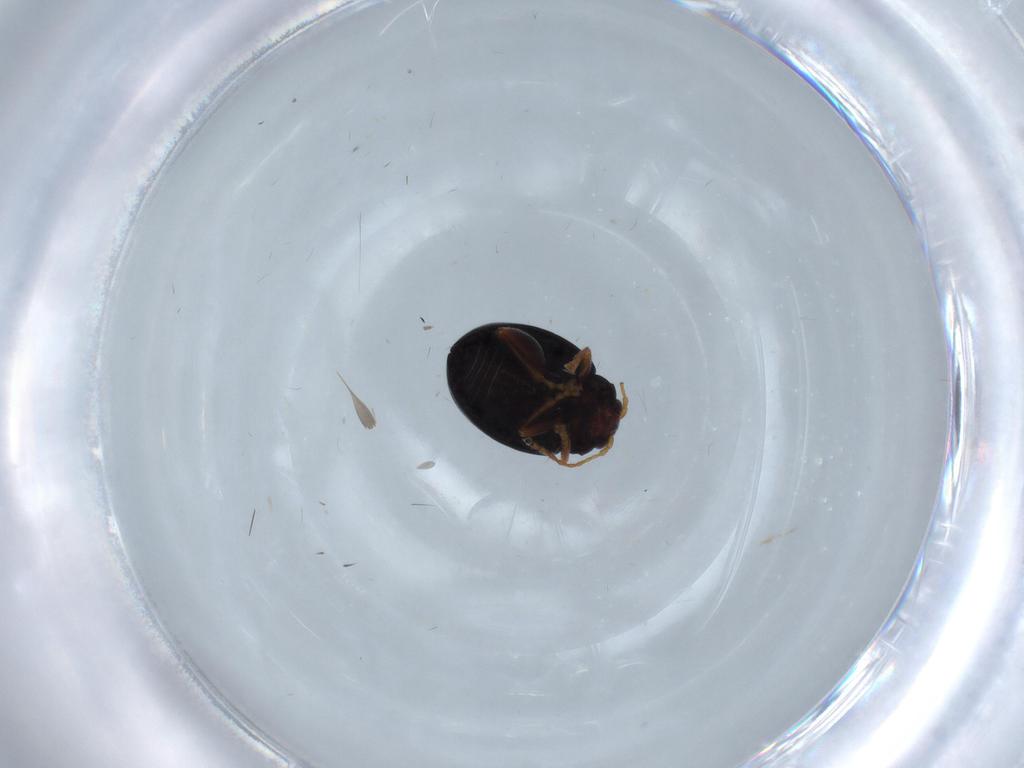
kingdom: Animalia
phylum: Arthropoda
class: Insecta
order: Coleoptera
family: Chrysomelidae
